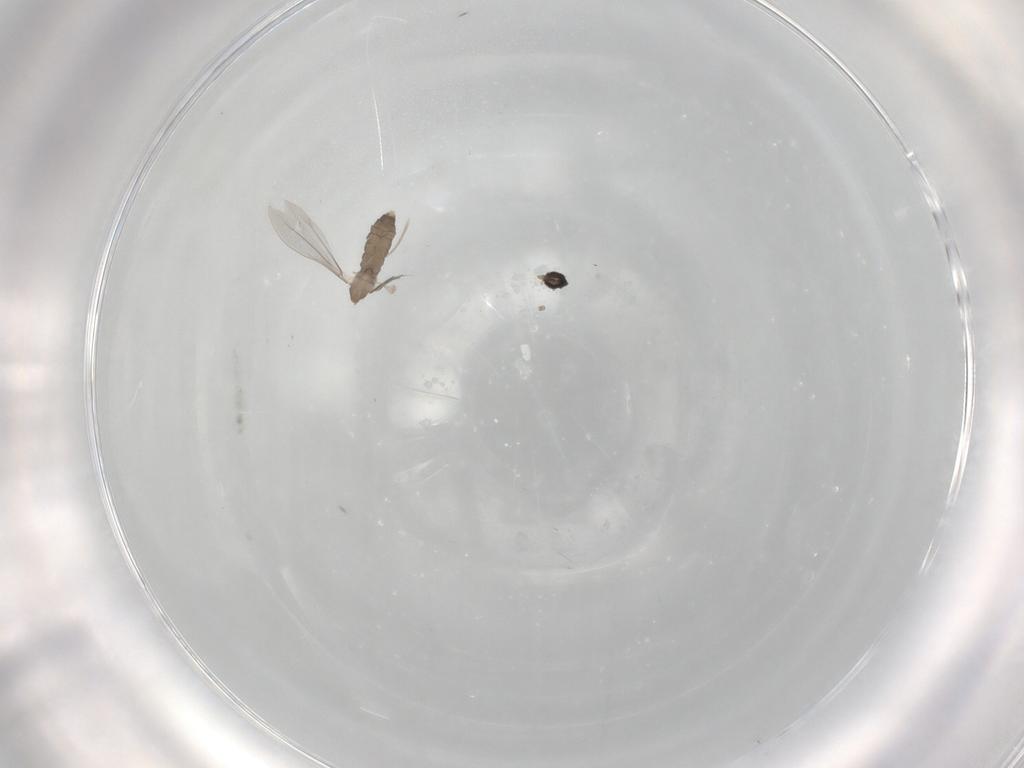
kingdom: Animalia
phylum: Arthropoda
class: Insecta
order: Diptera
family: Cecidomyiidae
